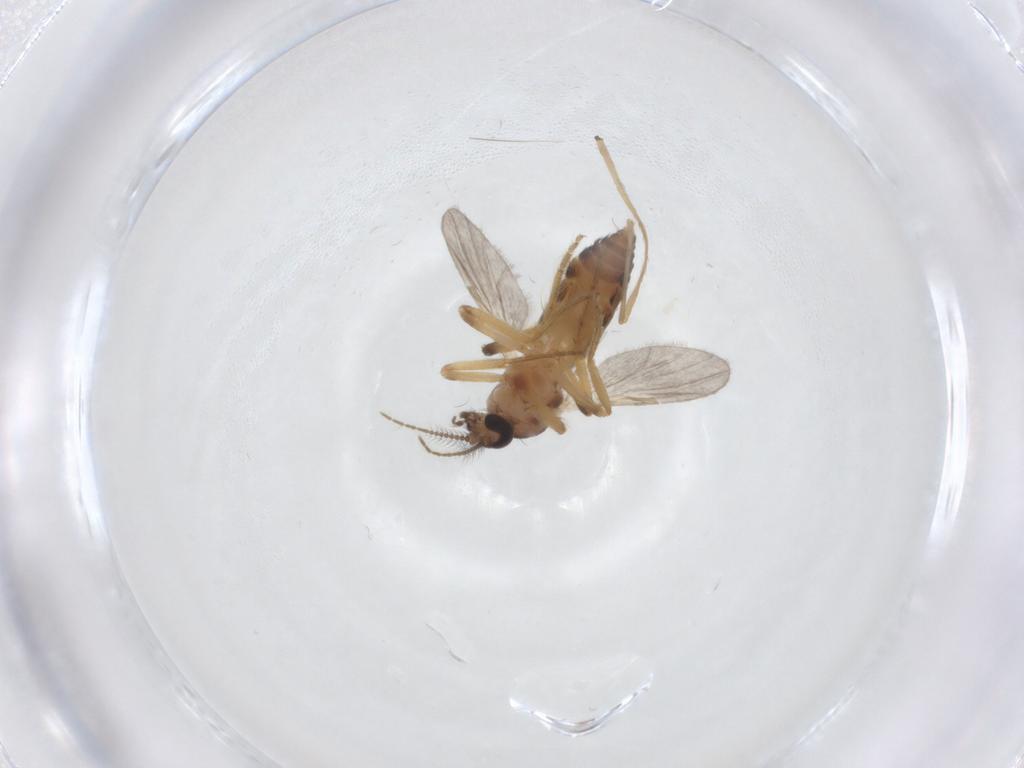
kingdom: Animalia
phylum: Arthropoda
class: Insecta
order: Diptera
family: Ceratopogonidae
